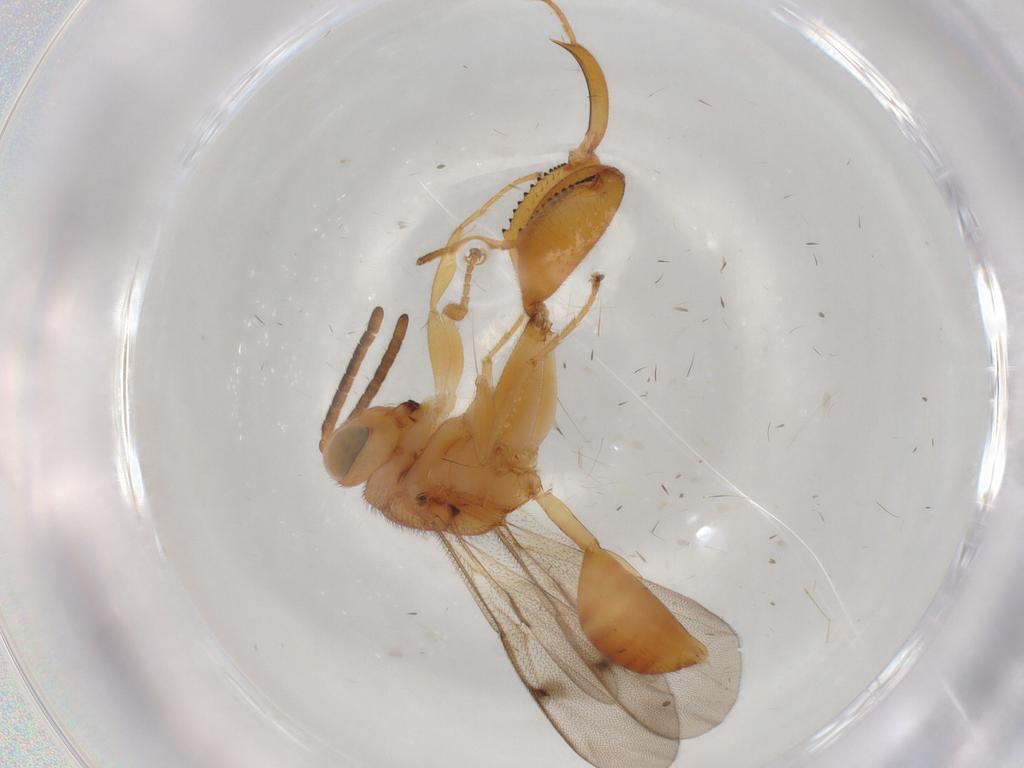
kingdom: Animalia
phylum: Arthropoda
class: Insecta
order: Hymenoptera
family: Chalcididae
